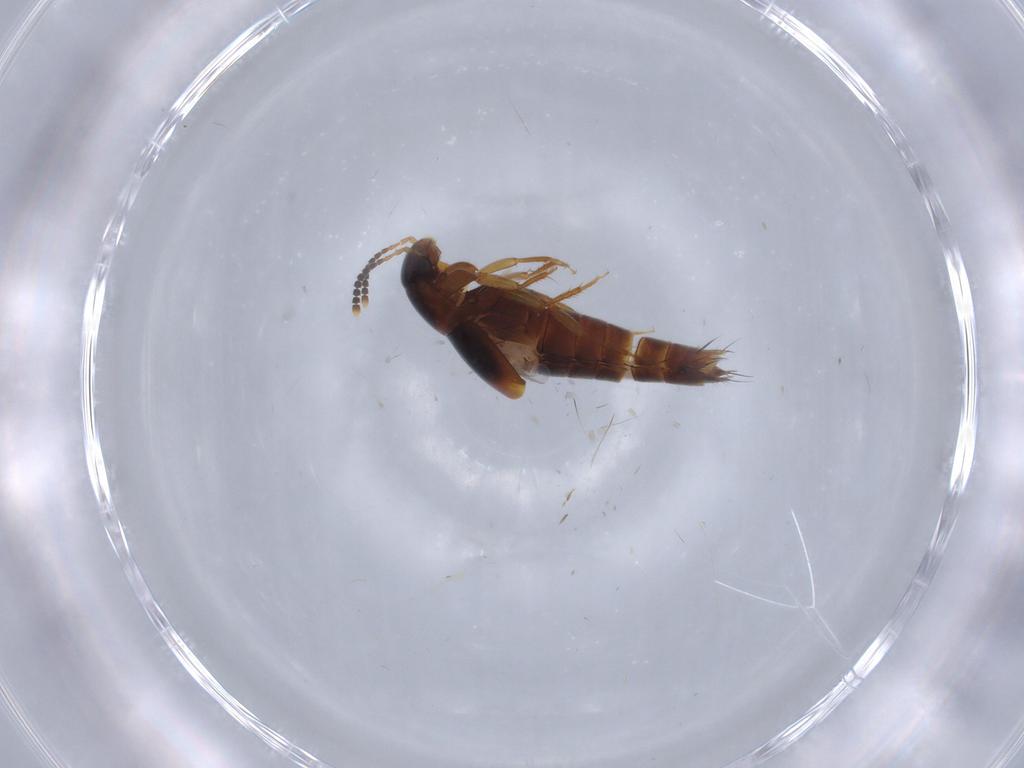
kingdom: Animalia
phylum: Arthropoda
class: Insecta
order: Coleoptera
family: Staphylinidae
